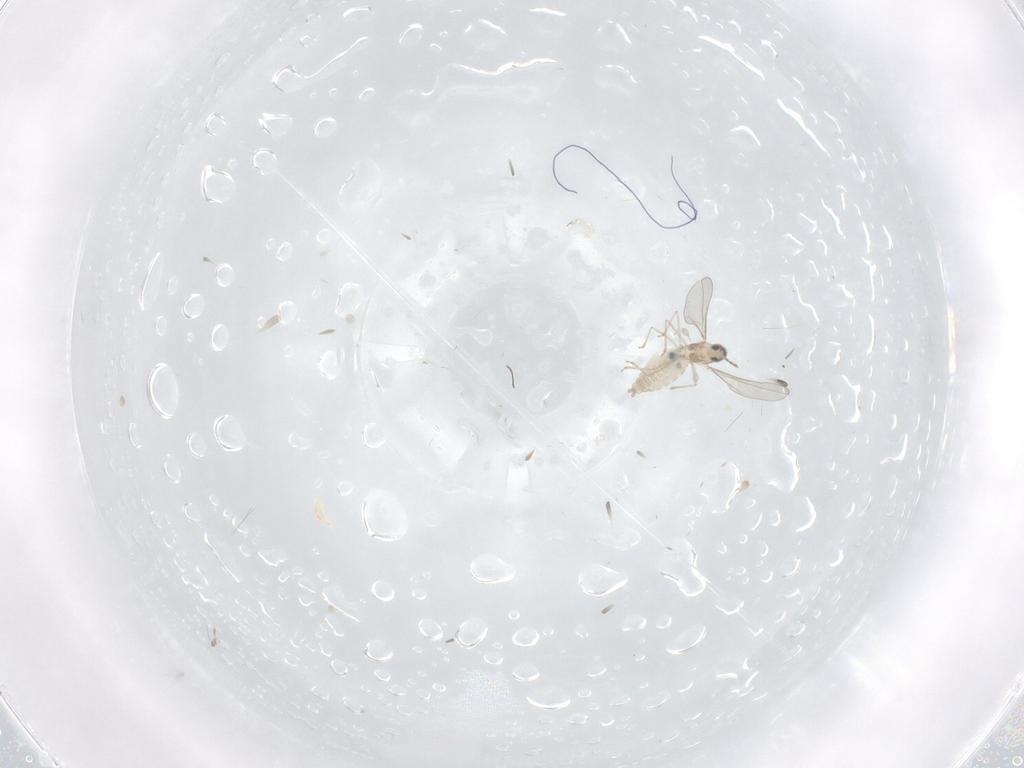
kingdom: Animalia
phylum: Arthropoda
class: Insecta
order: Diptera
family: Cecidomyiidae
